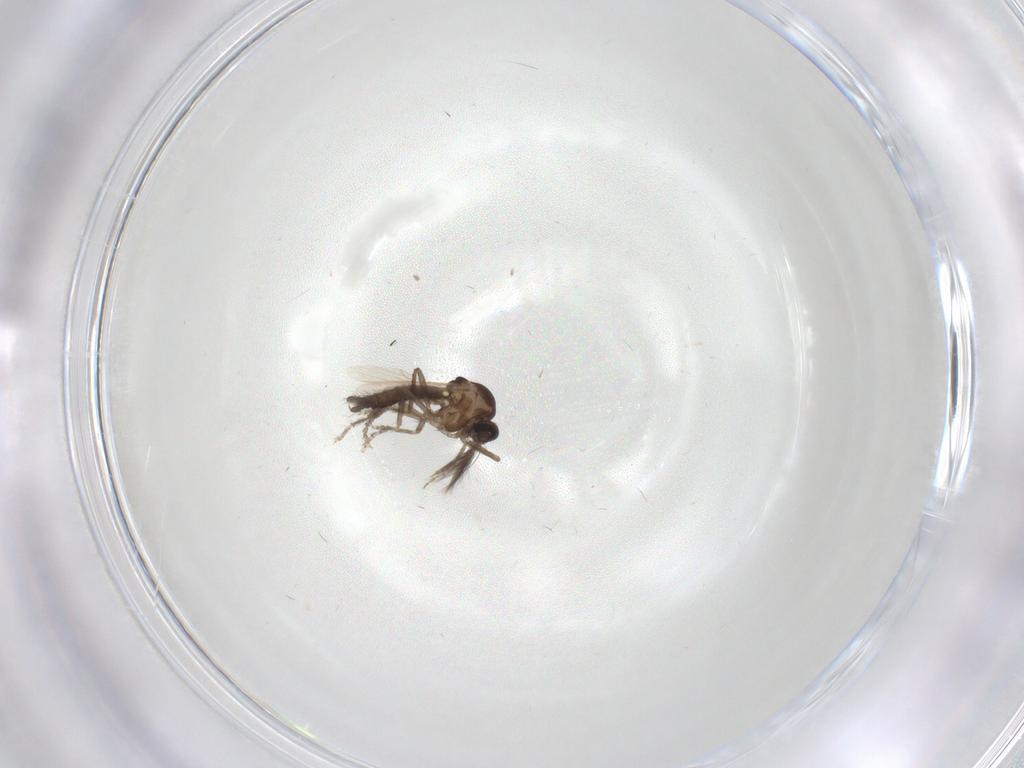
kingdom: Animalia
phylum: Arthropoda
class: Insecta
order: Diptera
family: Ceratopogonidae
